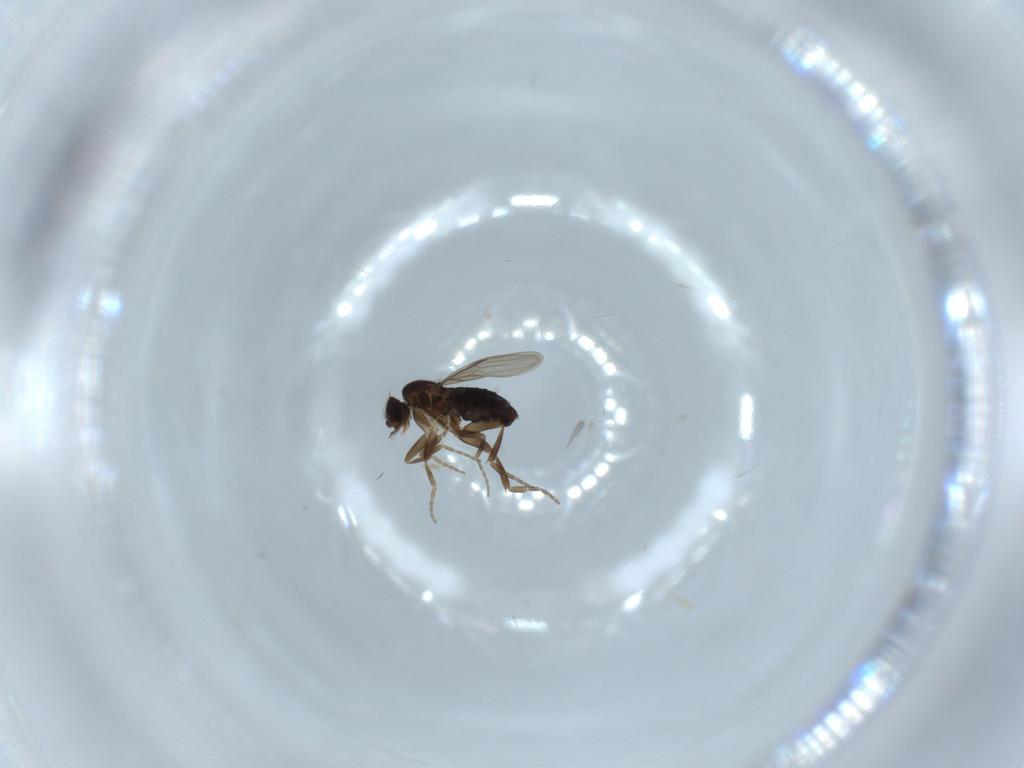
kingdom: Animalia
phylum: Arthropoda
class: Insecta
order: Diptera
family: Phoridae
